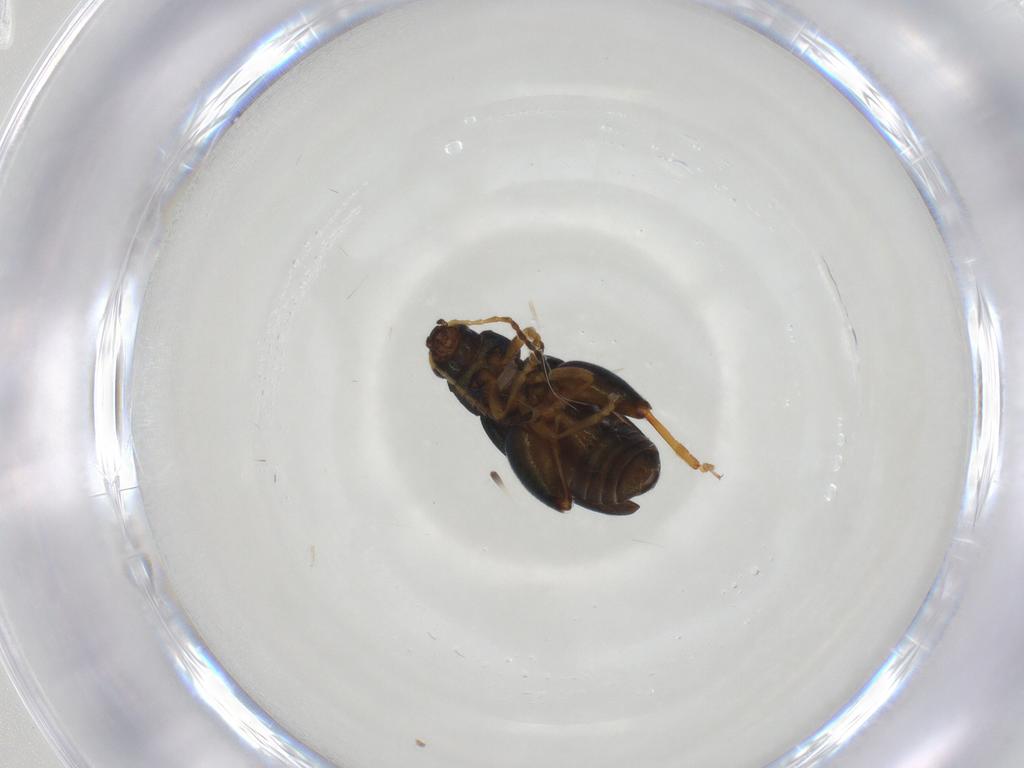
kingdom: Animalia
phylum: Arthropoda
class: Insecta
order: Coleoptera
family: Chrysomelidae
